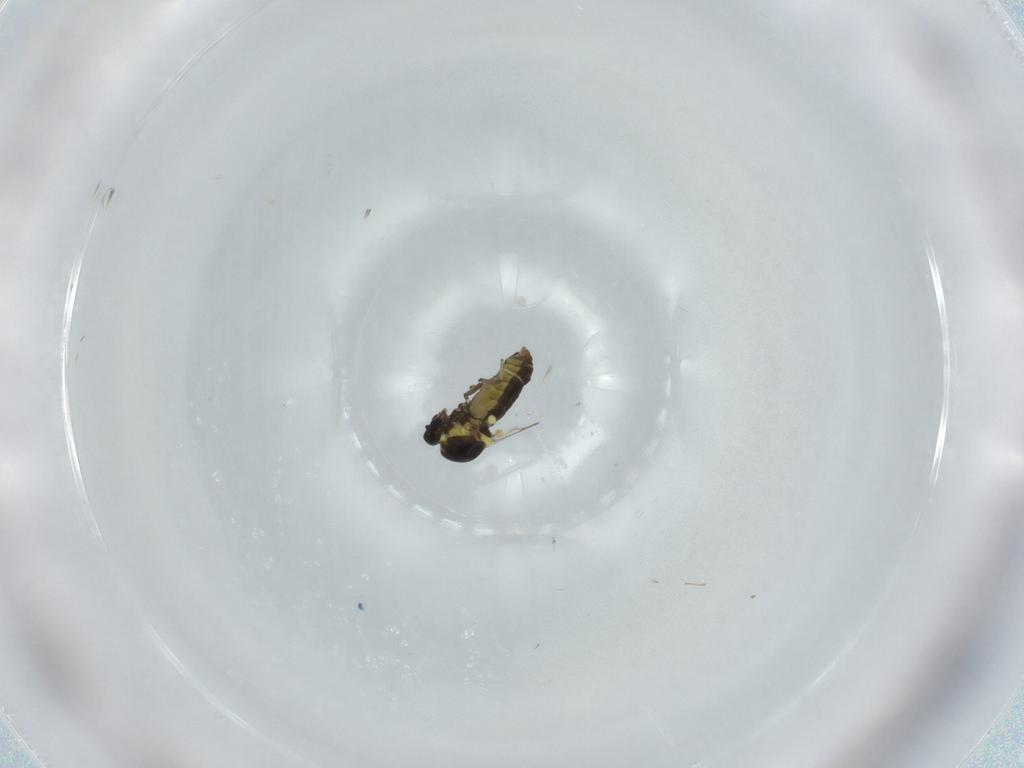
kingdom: Animalia
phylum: Arthropoda
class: Insecta
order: Diptera
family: Ceratopogonidae
